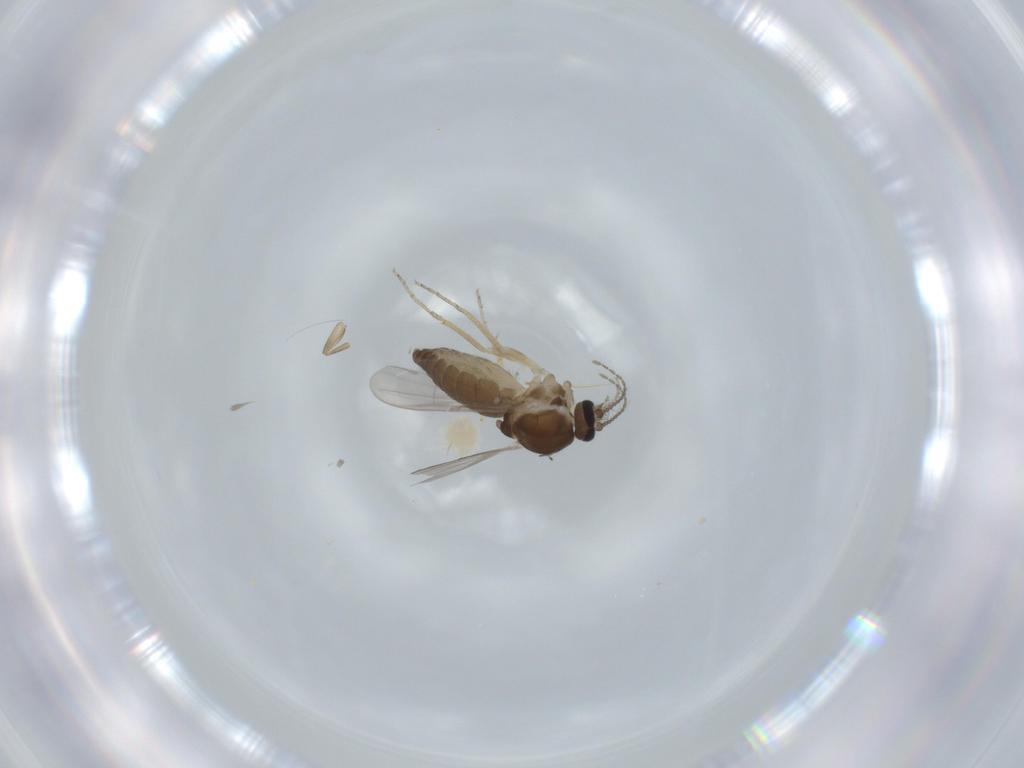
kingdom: Animalia
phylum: Arthropoda
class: Insecta
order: Diptera
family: Ceratopogonidae
